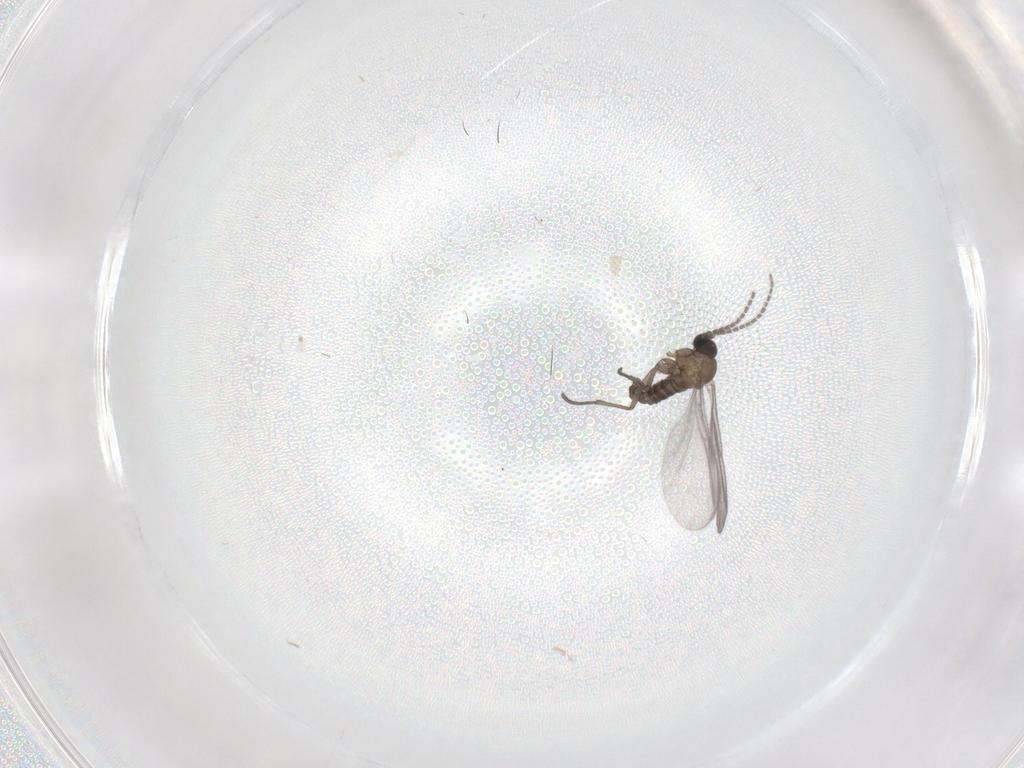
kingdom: Animalia
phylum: Arthropoda
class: Insecta
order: Diptera
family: Sciaridae
